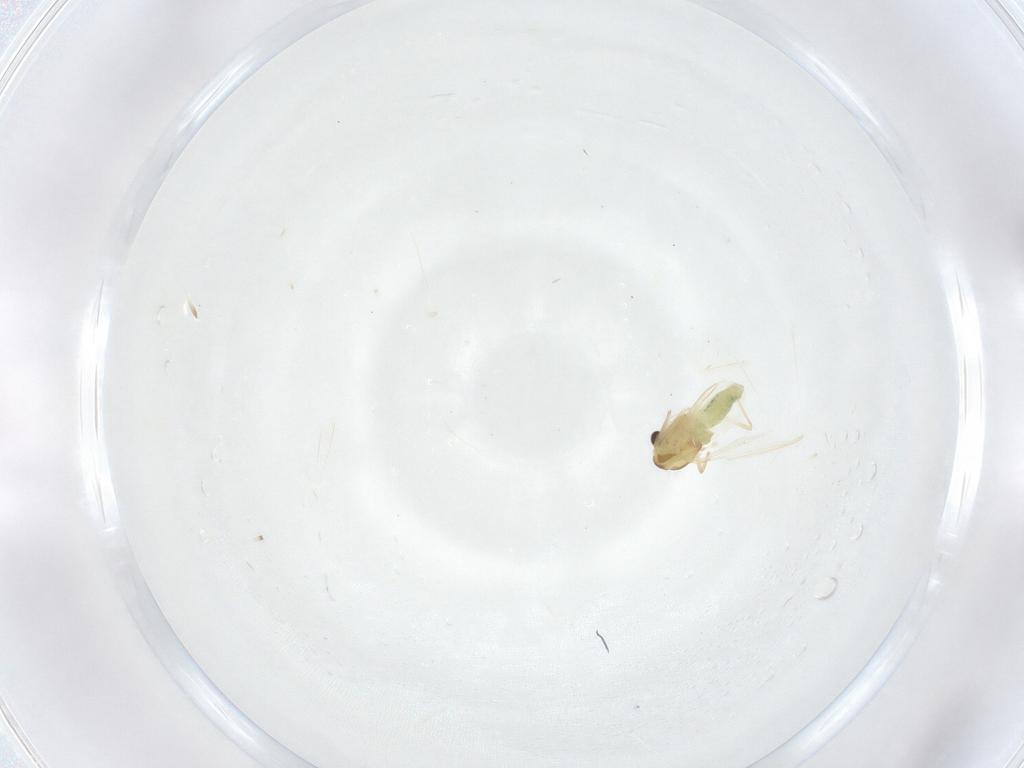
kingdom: Animalia
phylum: Arthropoda
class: Insecta
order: Diptera
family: Chironomidae
